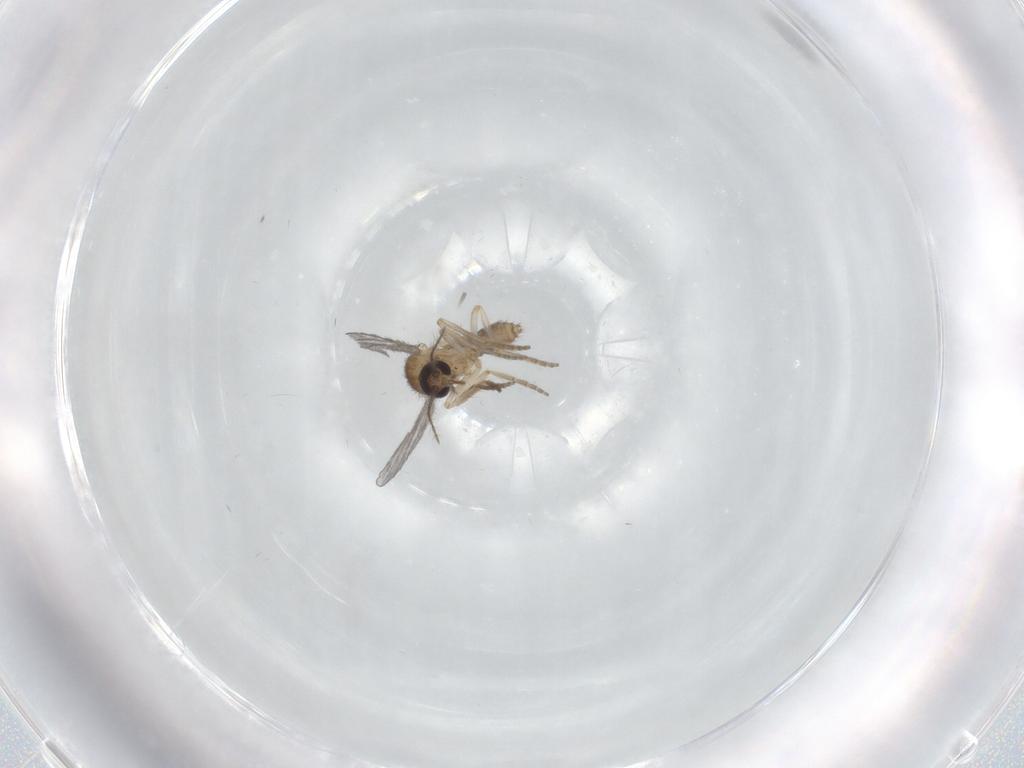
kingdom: Animalia
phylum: Arthropoda
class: Insecta
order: Diptera
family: Ceratopogonidae
